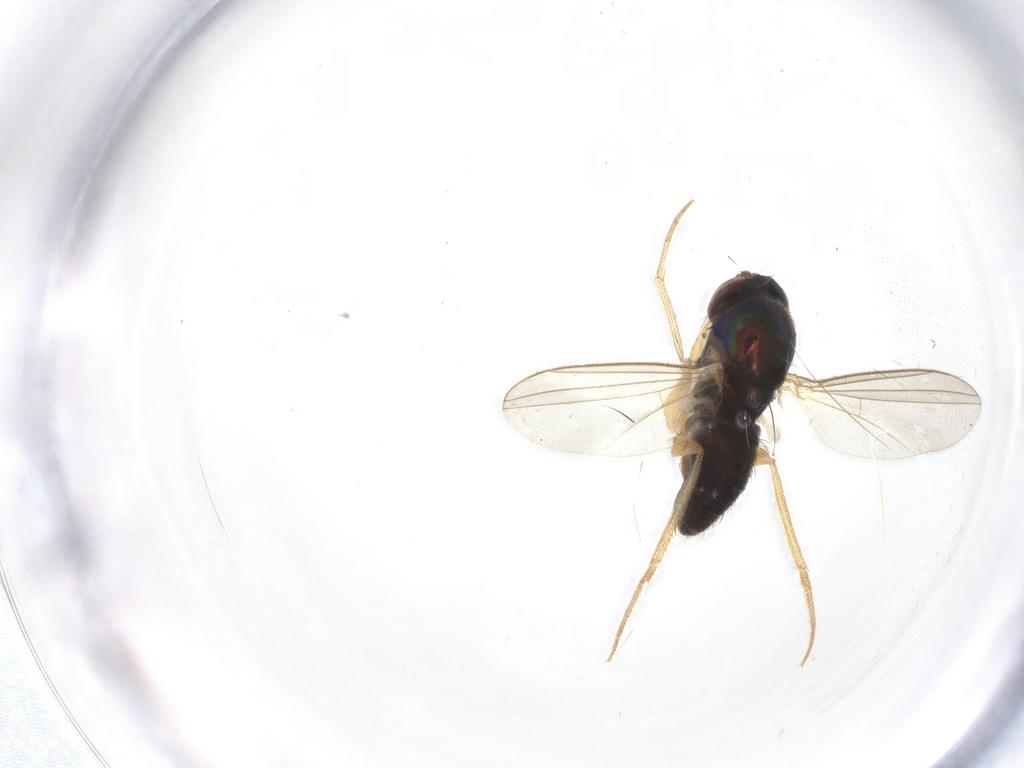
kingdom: Animalia
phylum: Arthropoda
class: Insecta
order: Diptera
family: Dolichopodidae
